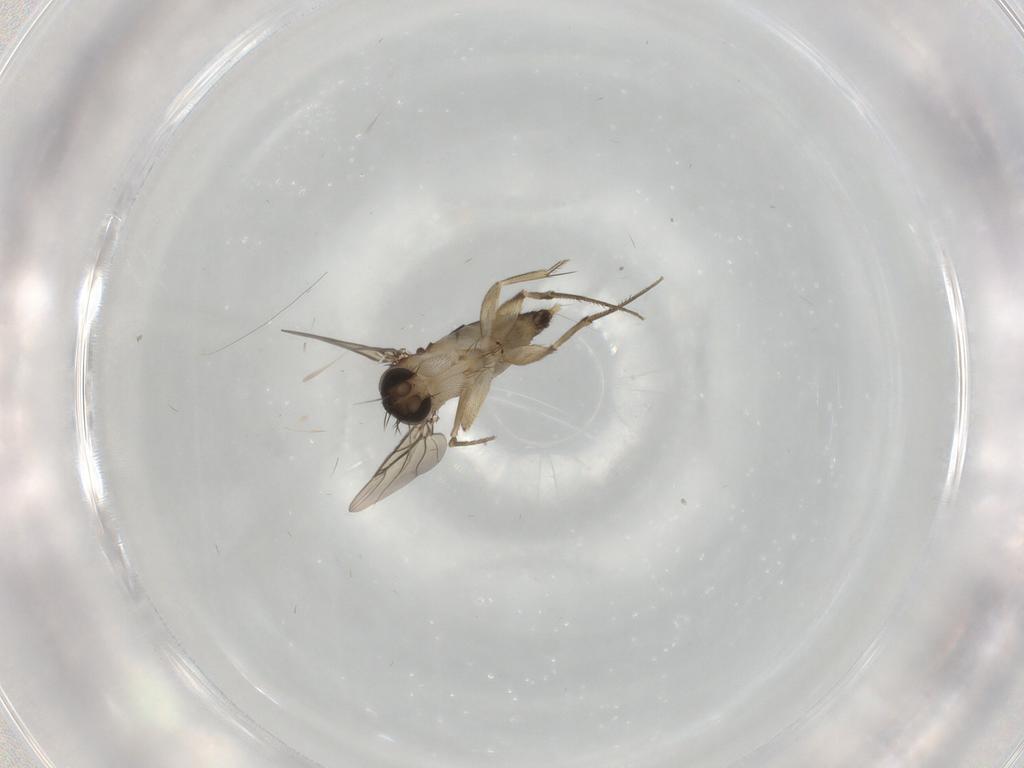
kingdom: Animalia
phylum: Arthropoda
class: Insecta
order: Diptera
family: Phoridae
